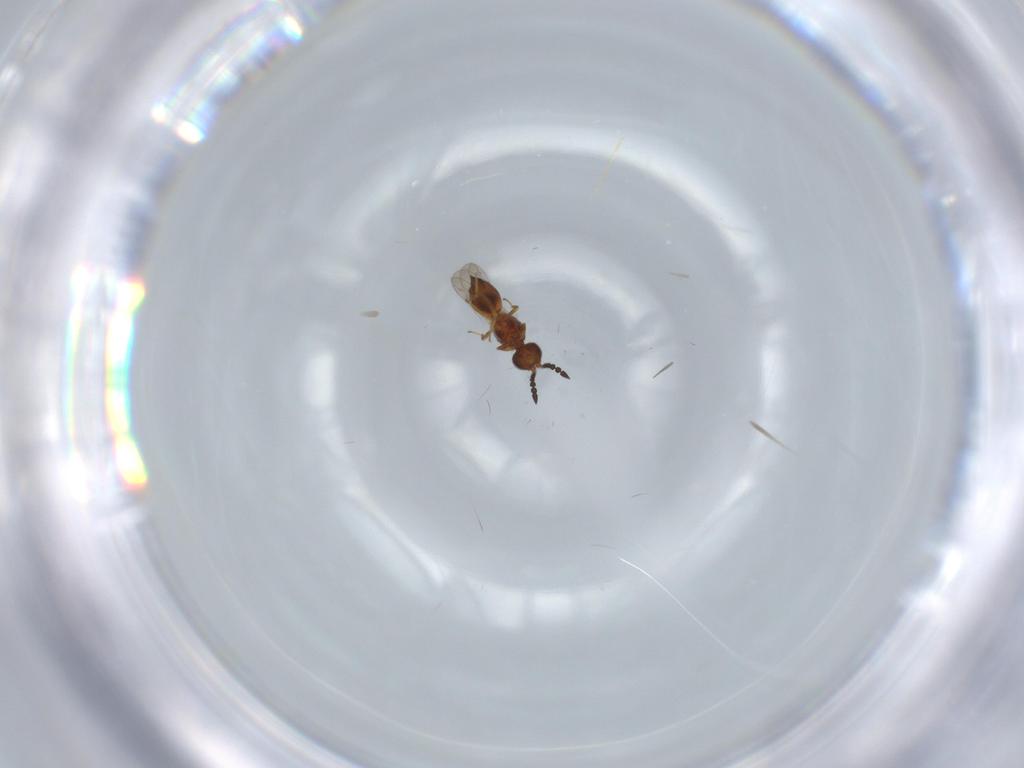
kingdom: Animalia
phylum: Arthropoda
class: Insecta
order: Hymenoptera
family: Ceraphronidae
